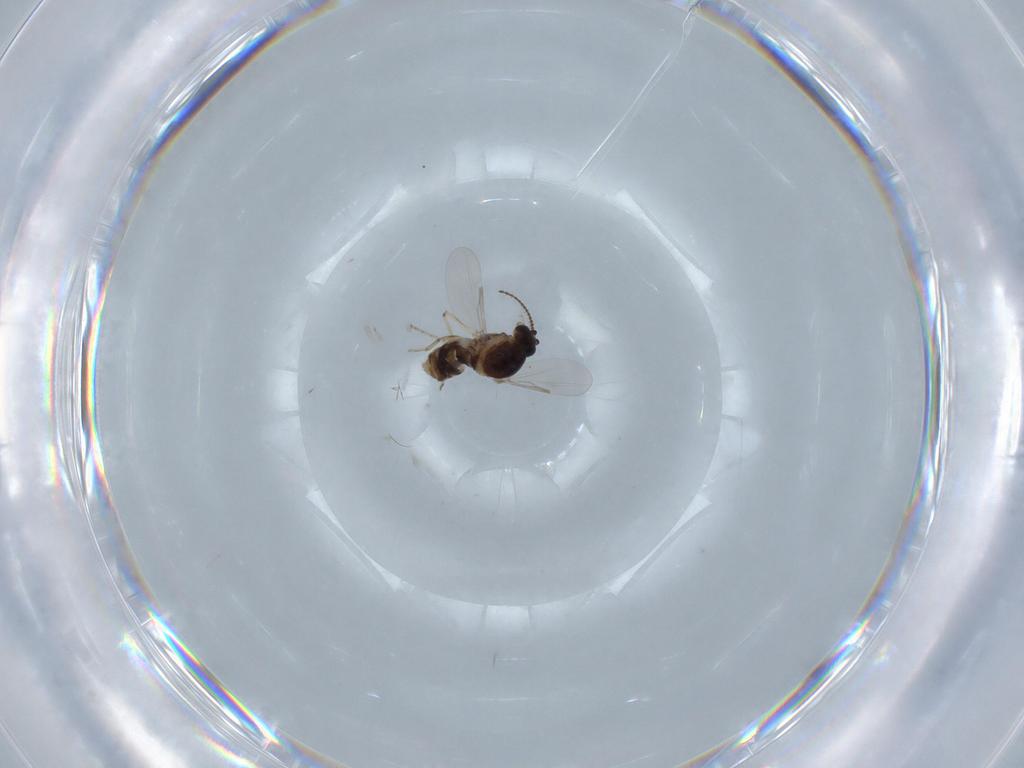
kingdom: Animalia
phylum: Arthropoda
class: Insecta
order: Diptera
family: Ceratopogonidae
